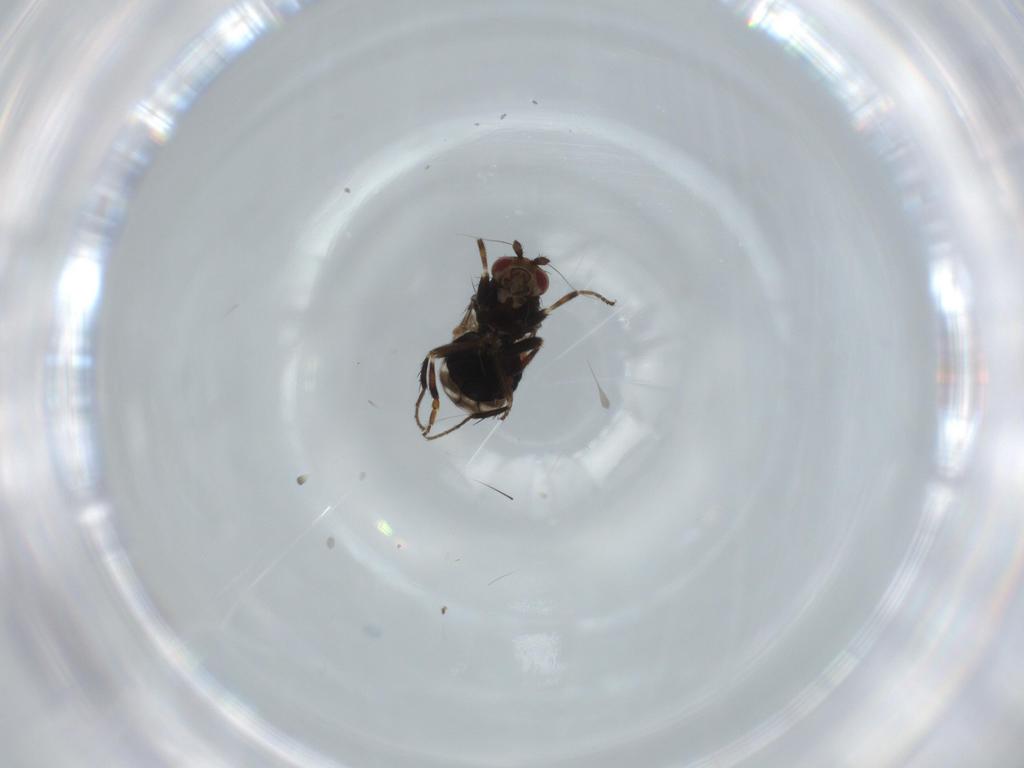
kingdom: Animalia
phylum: Arthropoda
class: Insecta
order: Diptera
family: Sphaeroceridae
